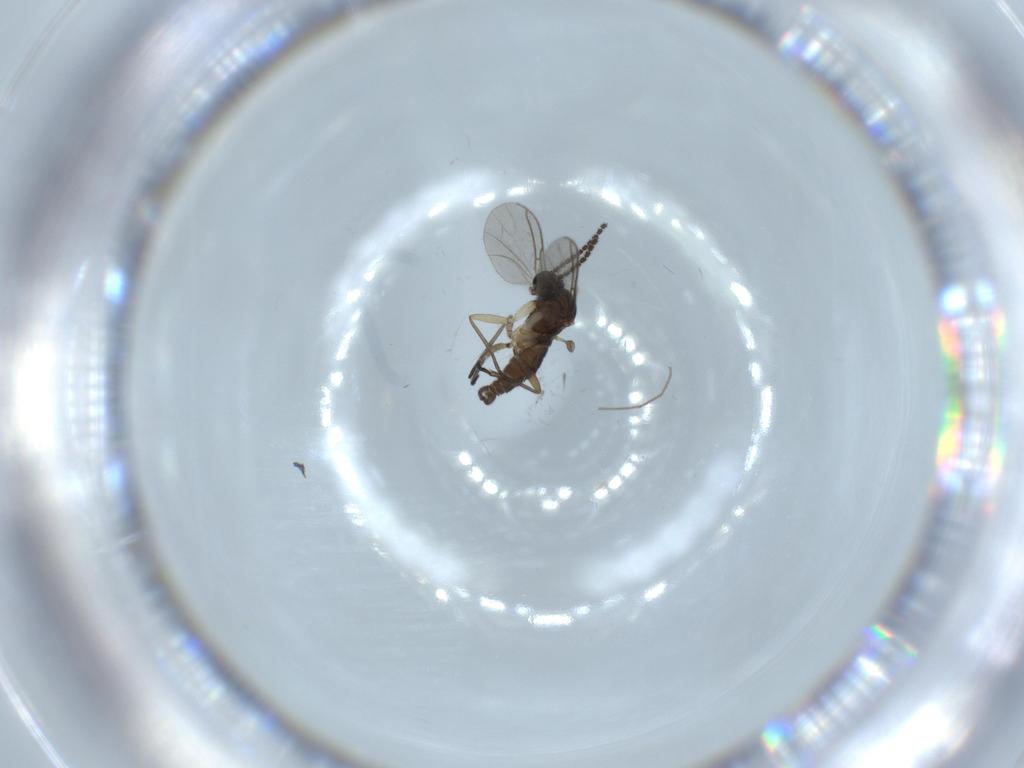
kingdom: Animalia
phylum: Arthropoda
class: Insecta
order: Diptera
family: Sciaridae
